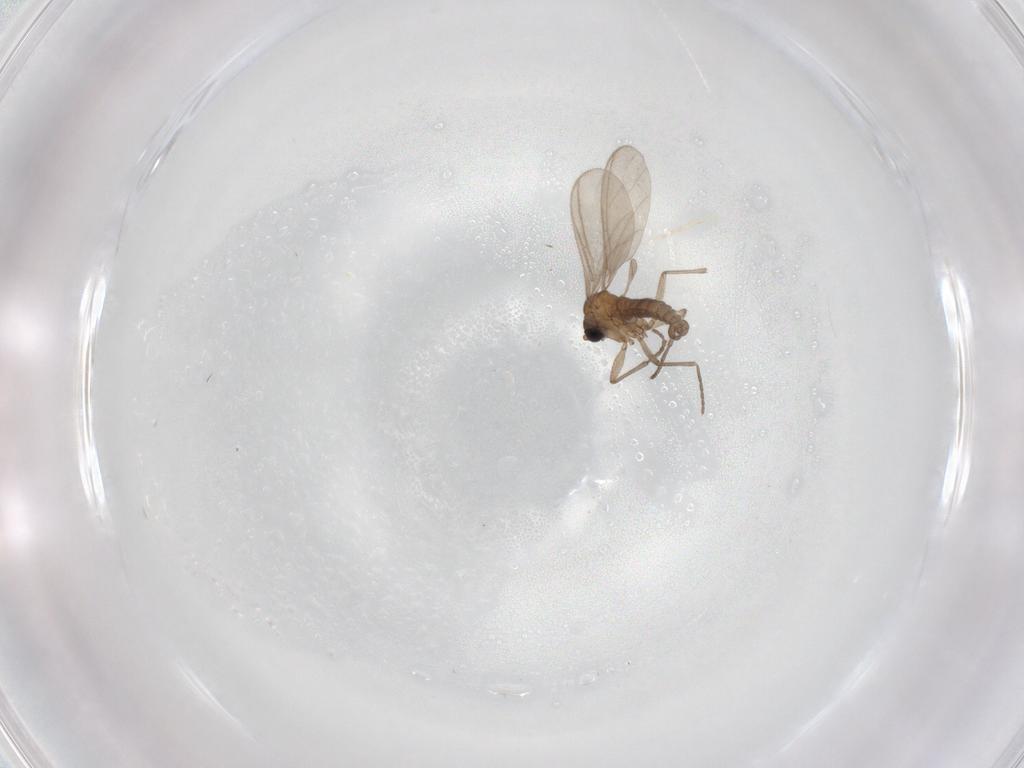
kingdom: Animalia
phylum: Arthropoda
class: Insecta
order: Diptera
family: Sciaridae
